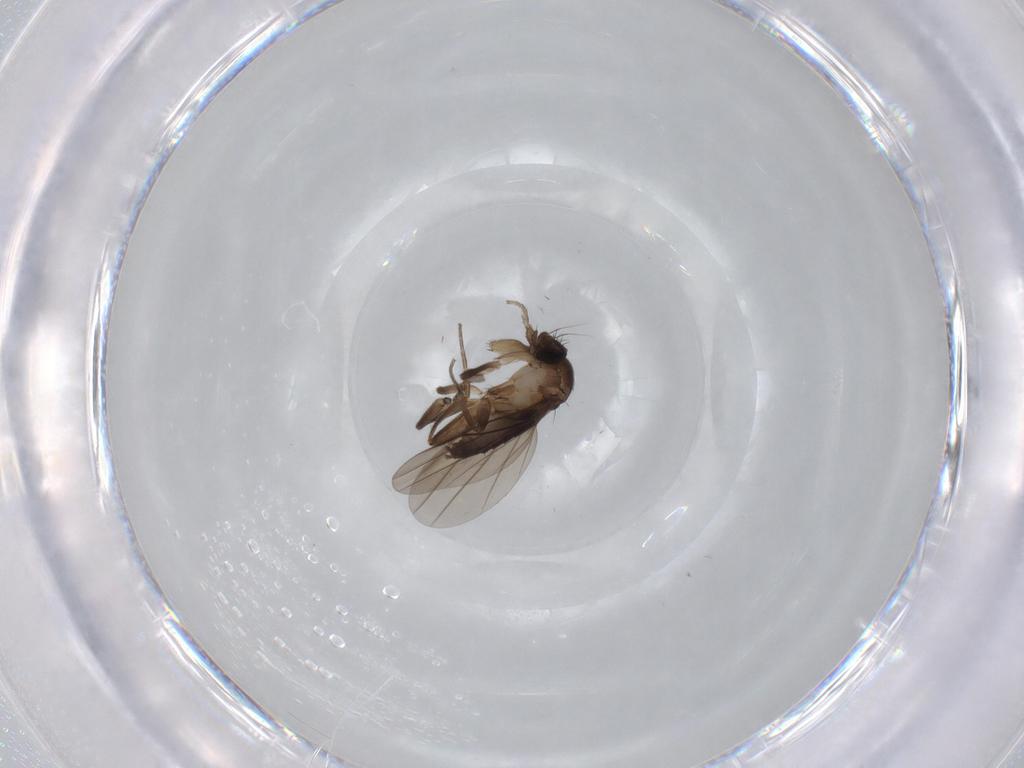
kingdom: Animalia
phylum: Arthropoda
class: Insecta
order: Diptera
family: Phoridae
